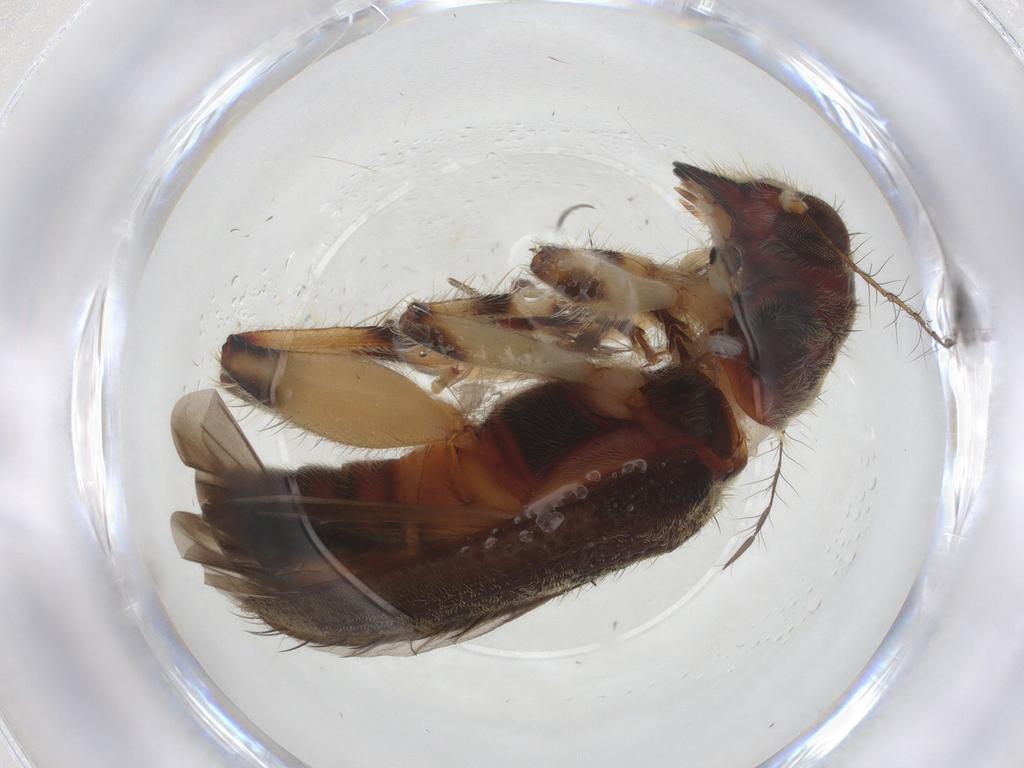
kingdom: Animalia
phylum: Arthropoda
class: Insecta
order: Coleoptera
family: Cleridae
